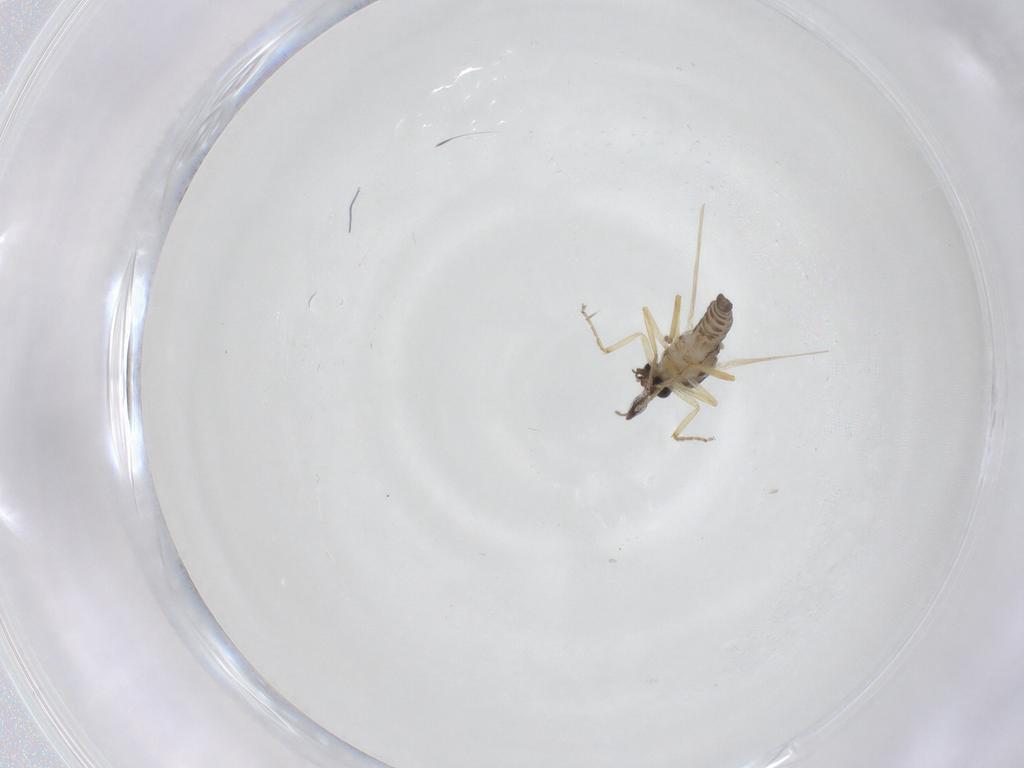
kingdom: Animalia
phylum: Arthropoda
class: Insecta
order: Diptera
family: Ceratopogonidae
